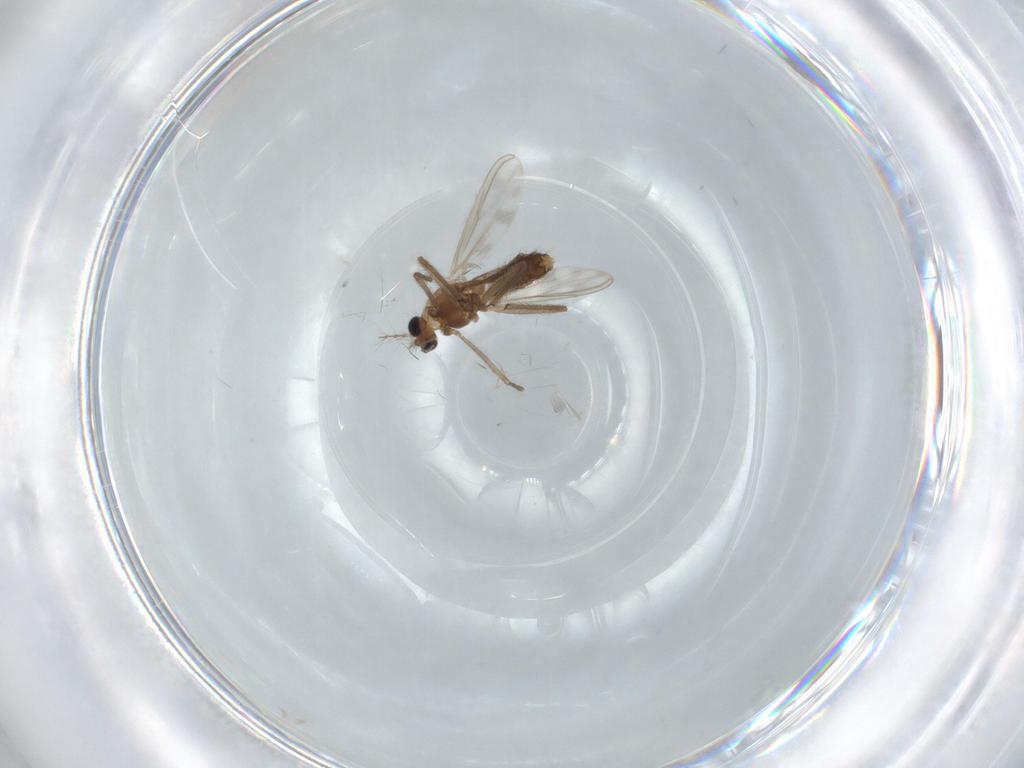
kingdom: Animalia
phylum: Arthropoda
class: Insecta
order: Diptera
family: Chironomidae
